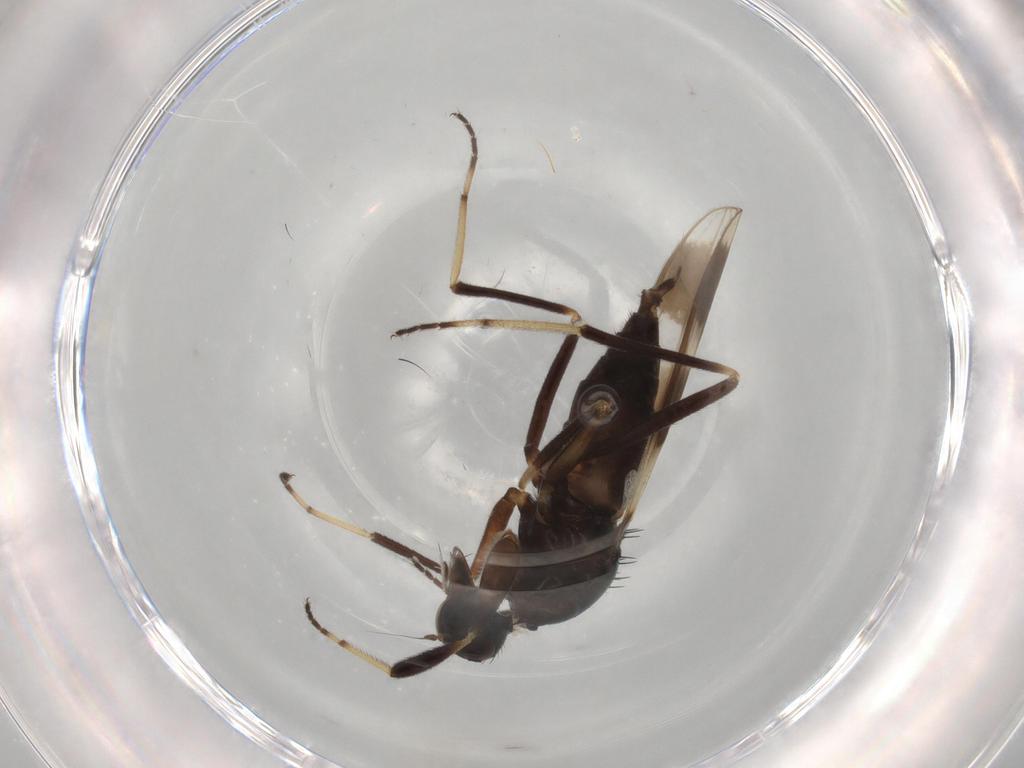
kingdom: Animalia
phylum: Arthropoda
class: Insecta
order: Diptera
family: Hybotidae
